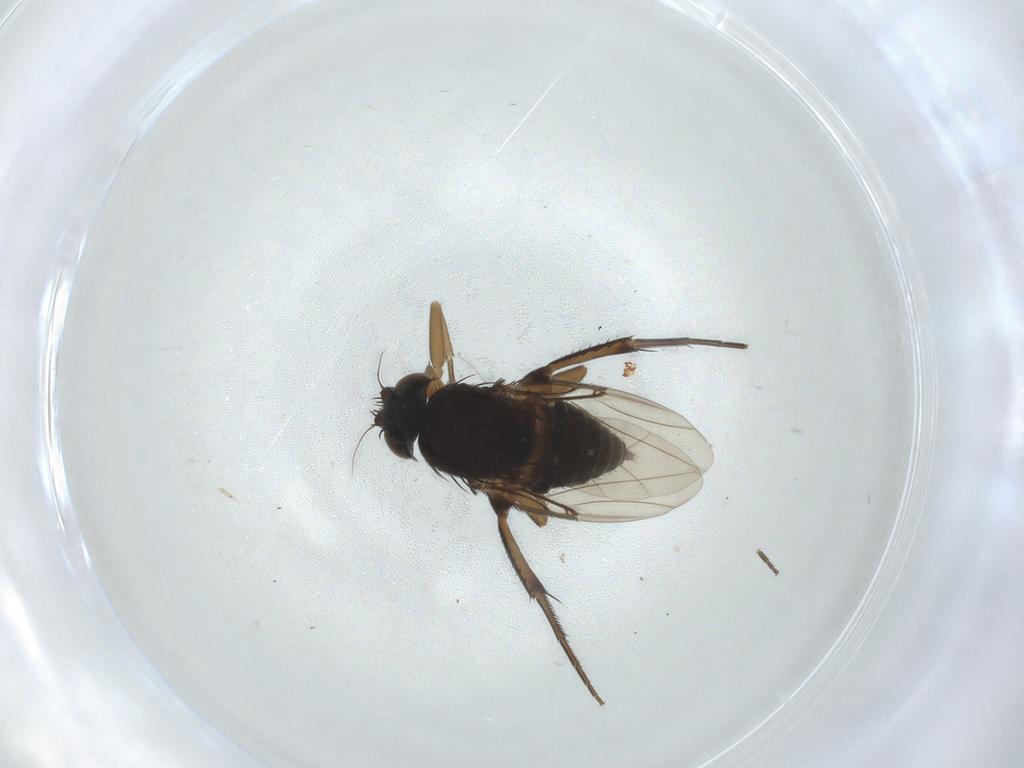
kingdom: Animalia
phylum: Arthropoda
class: Insecta
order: Diptera
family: Phoridae
